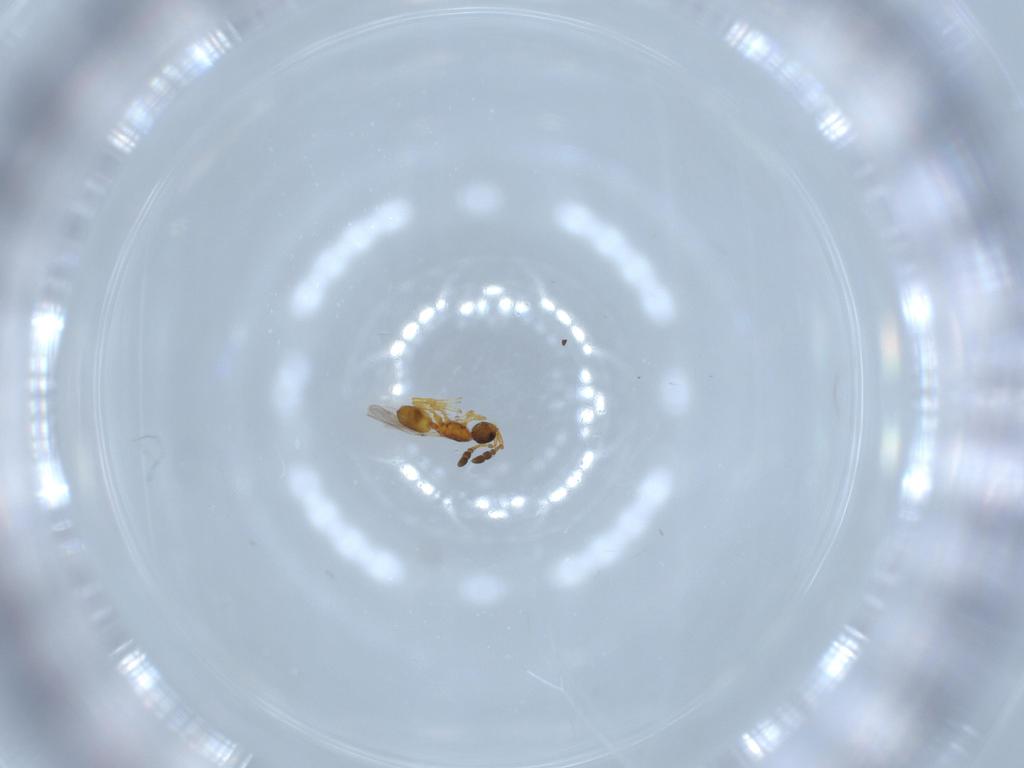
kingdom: Animalia
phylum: Arthropoda
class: Insecta
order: Hymenoptera
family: Diapriidae
